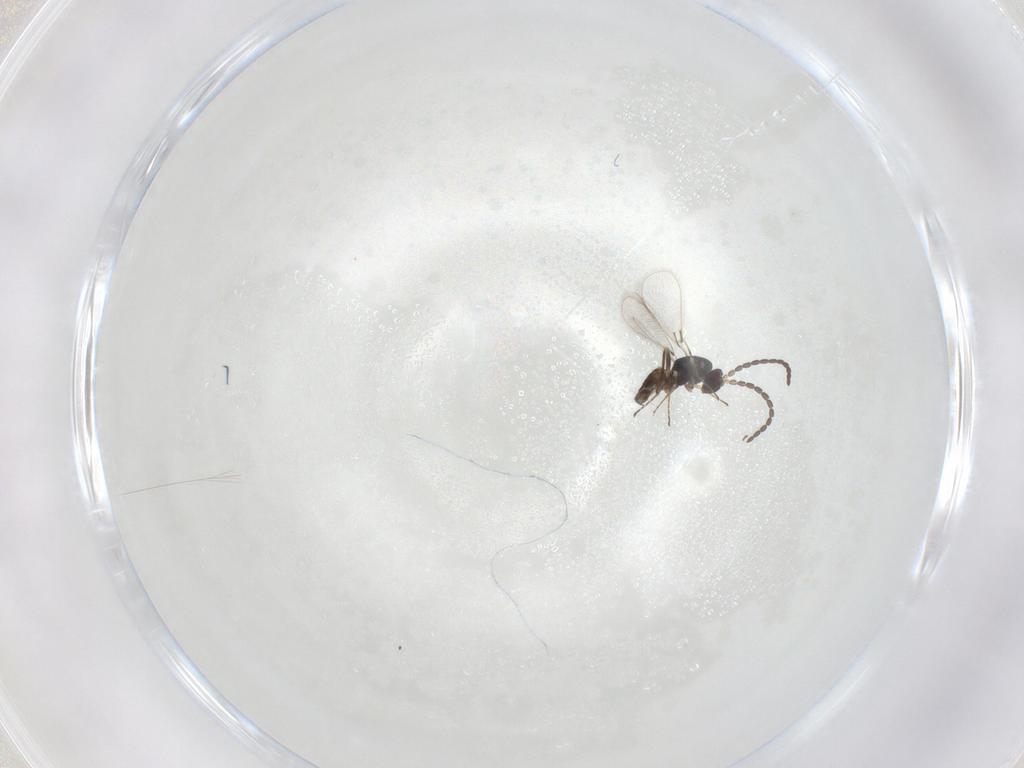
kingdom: Animalia
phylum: Arthropoda
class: Insecta
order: Hymenoptera
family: Mymaridae
